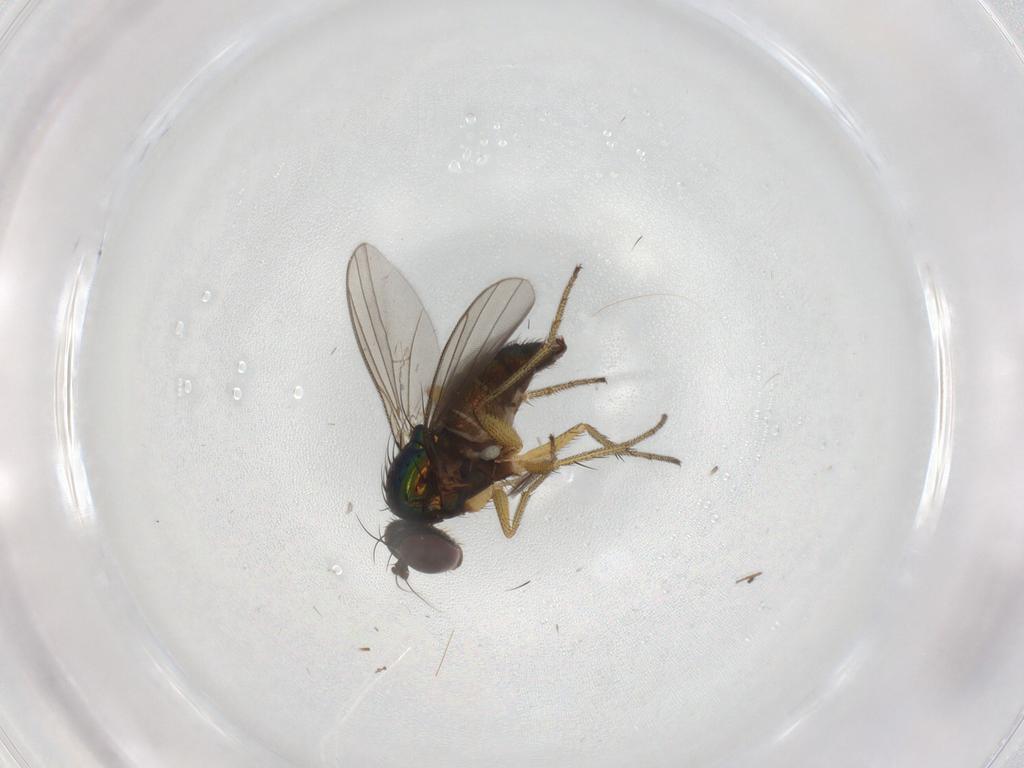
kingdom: Animalia
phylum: Arthropoda
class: Insecta
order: Diptera
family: Dolichopodidae
